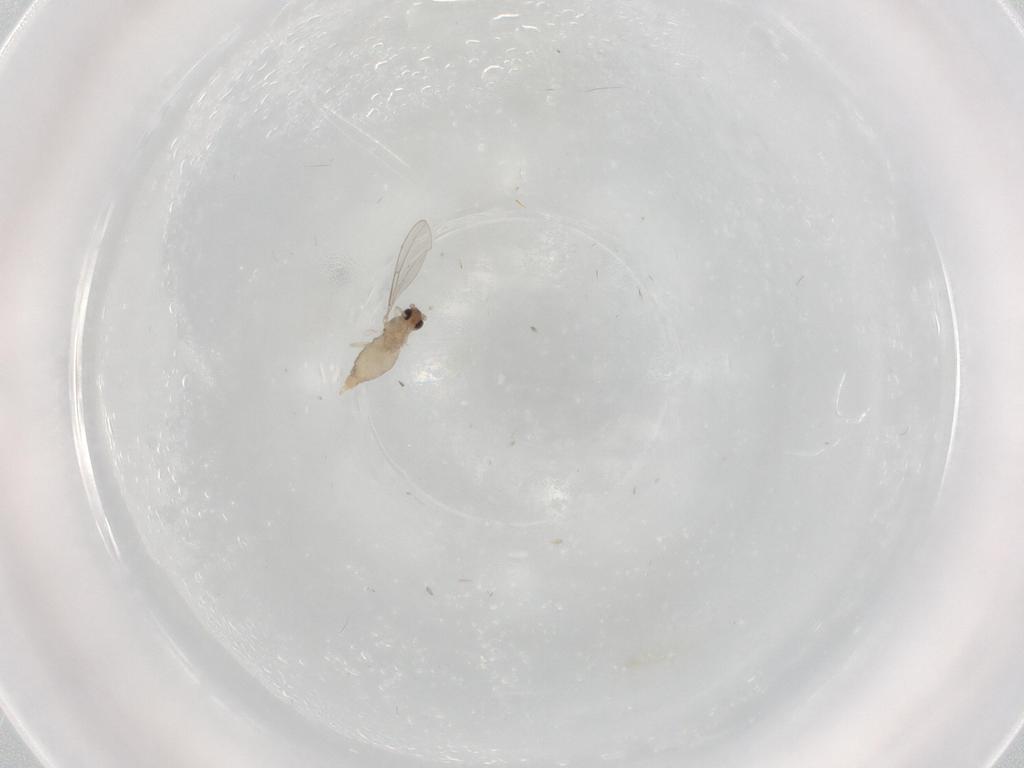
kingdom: Animalia
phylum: Arthropoda
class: Insecta
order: Diptera
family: Cecidomyiidae
